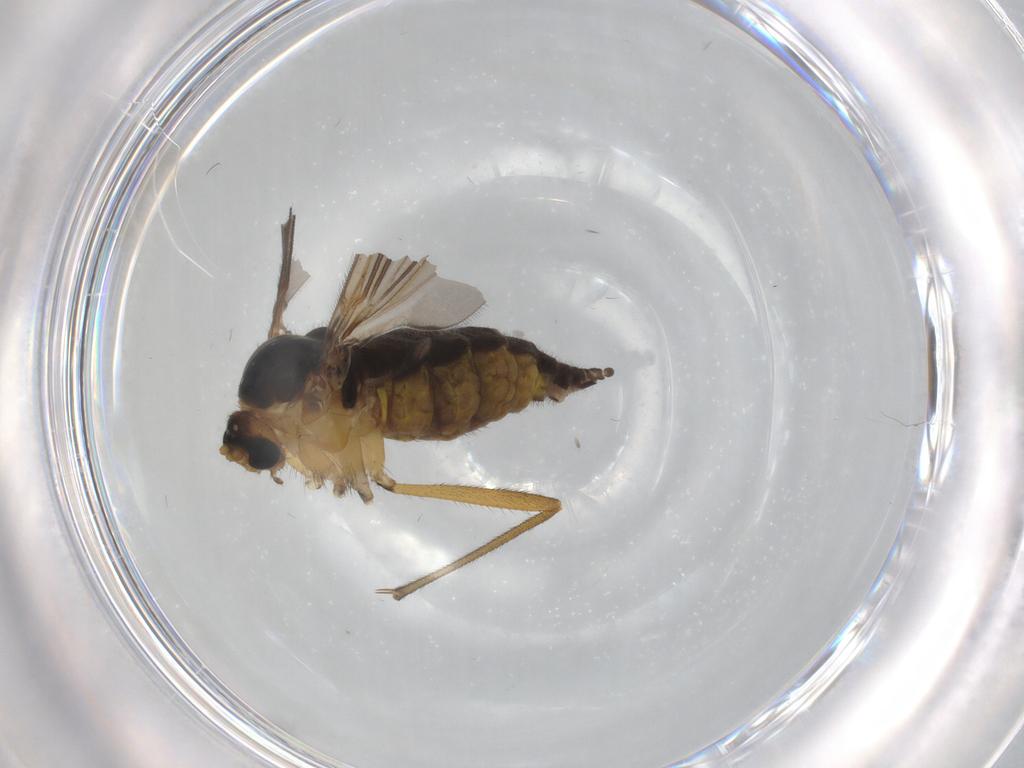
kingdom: Animalia
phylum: Arthropoda
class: Insecta
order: Diptera
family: Sciaridae
